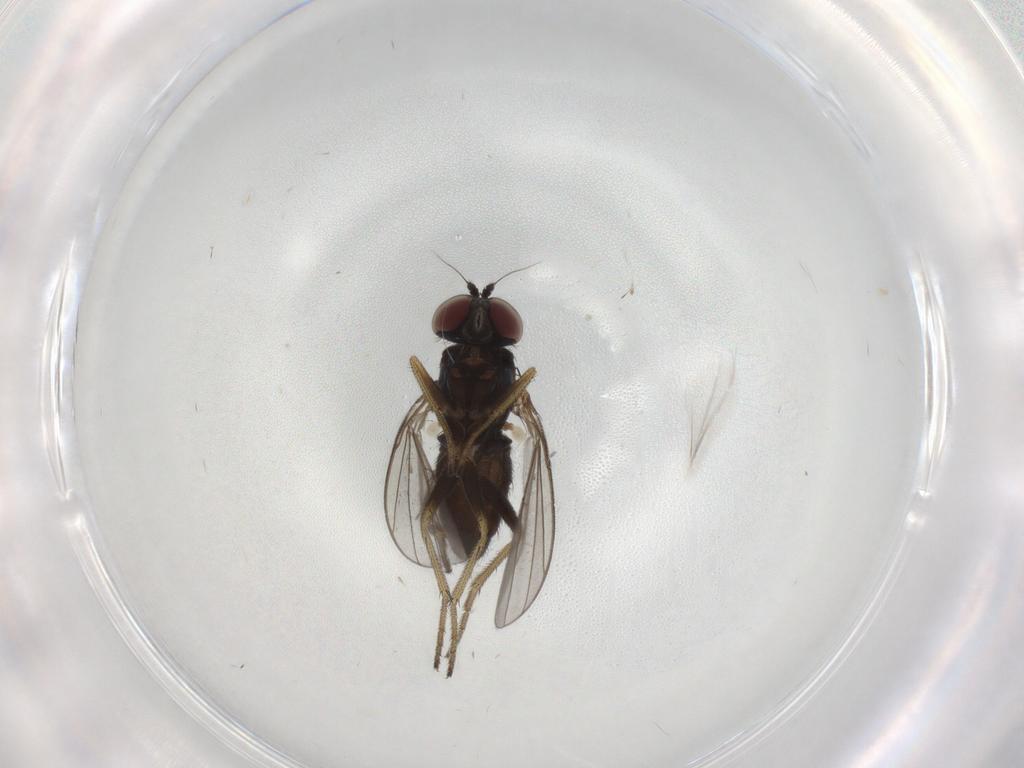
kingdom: Animalia
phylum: Arthropoda
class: Insecta
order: Diptera
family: Dolichopodidae
